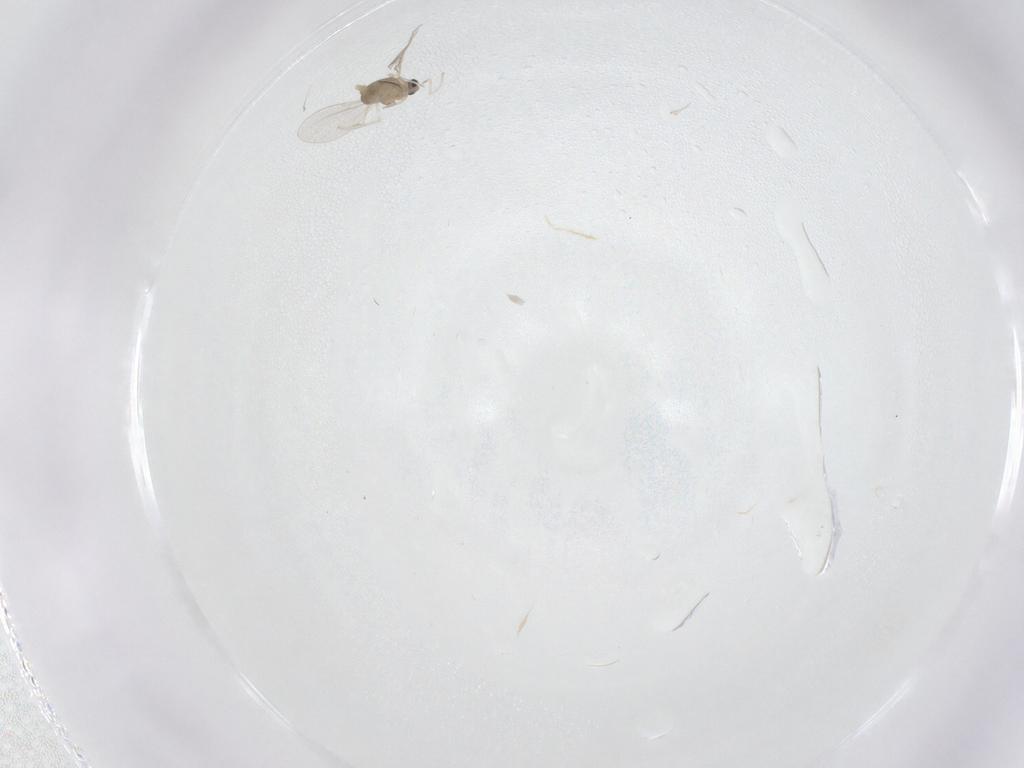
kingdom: Animalia
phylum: Arthropoda
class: Insecta
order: Diptera
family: Cecidomyiidae
